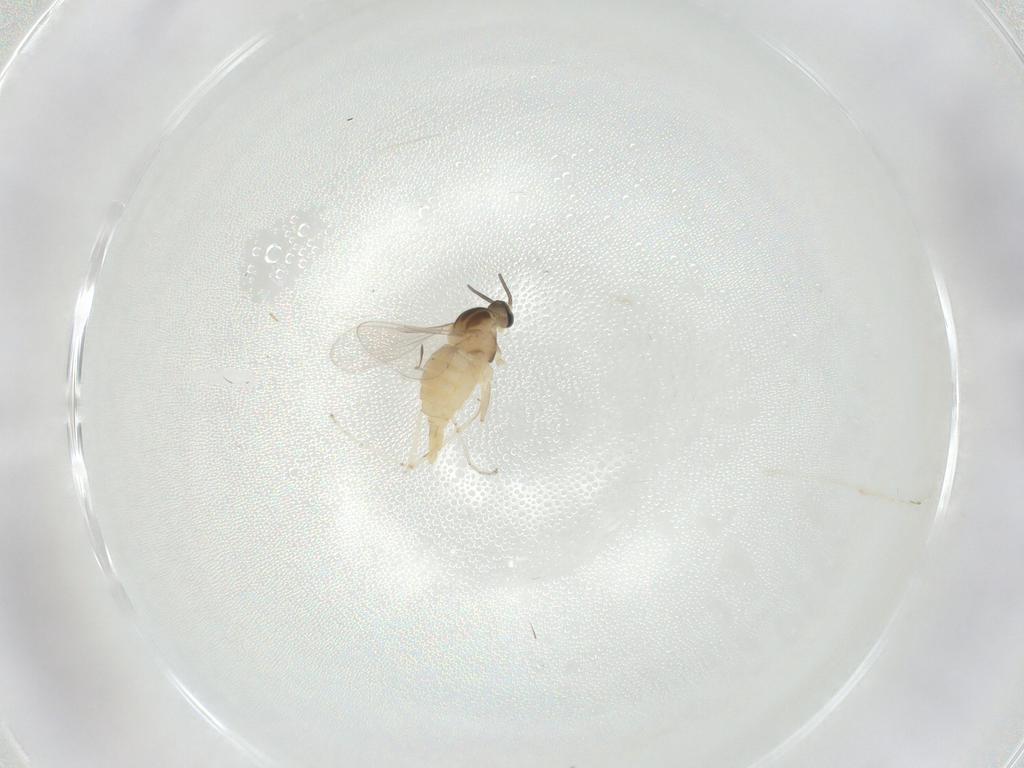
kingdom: Animalia
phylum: Arthropoda
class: Insecta
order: Diptera
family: Cecidomyiidae
